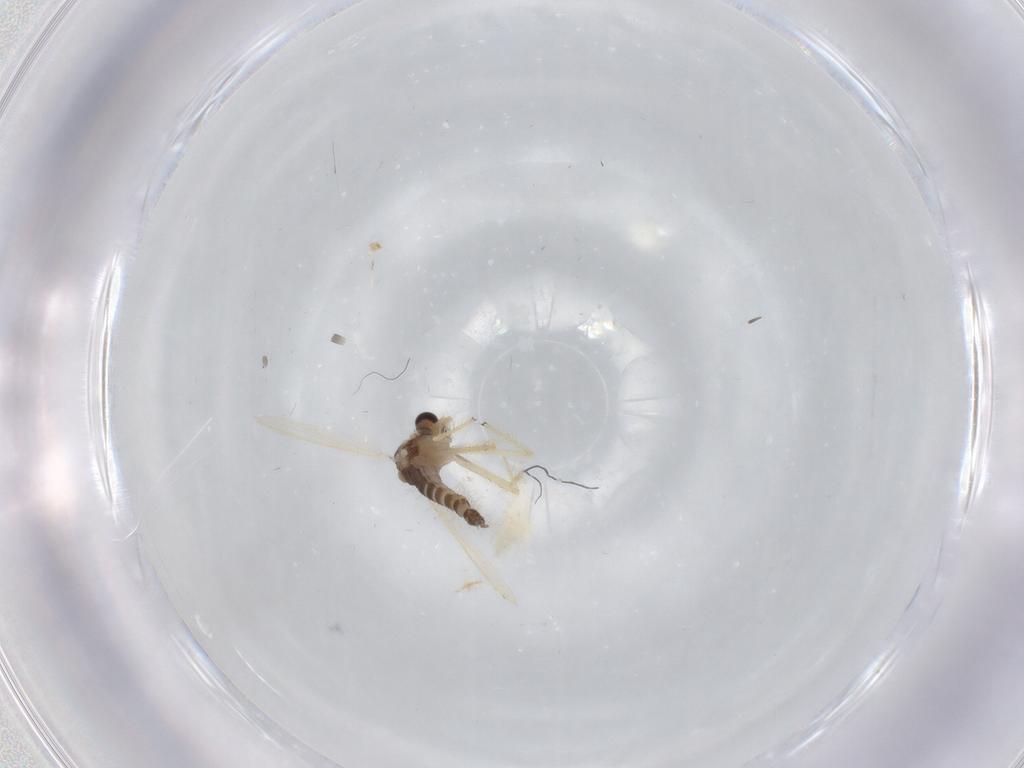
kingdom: Animalia
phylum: Arthropoda
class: Insecta
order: Diptera
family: Chironomidae
